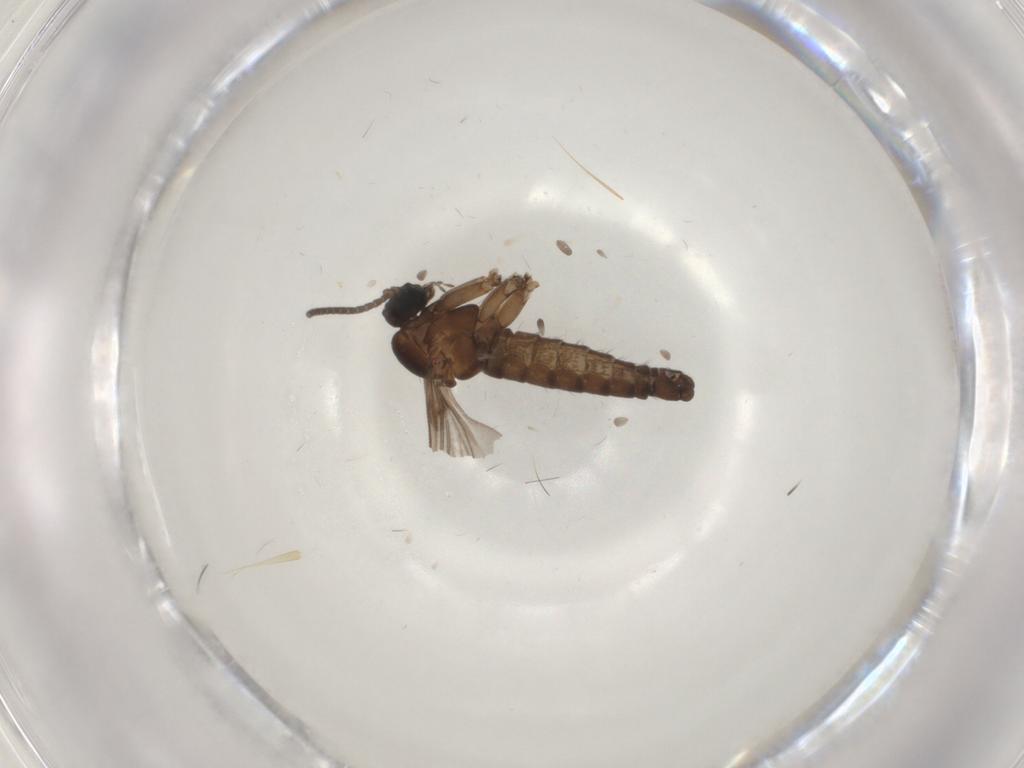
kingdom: Animalia
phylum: Arthropoda
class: Insecta
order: Diptera
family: Sciaridae
